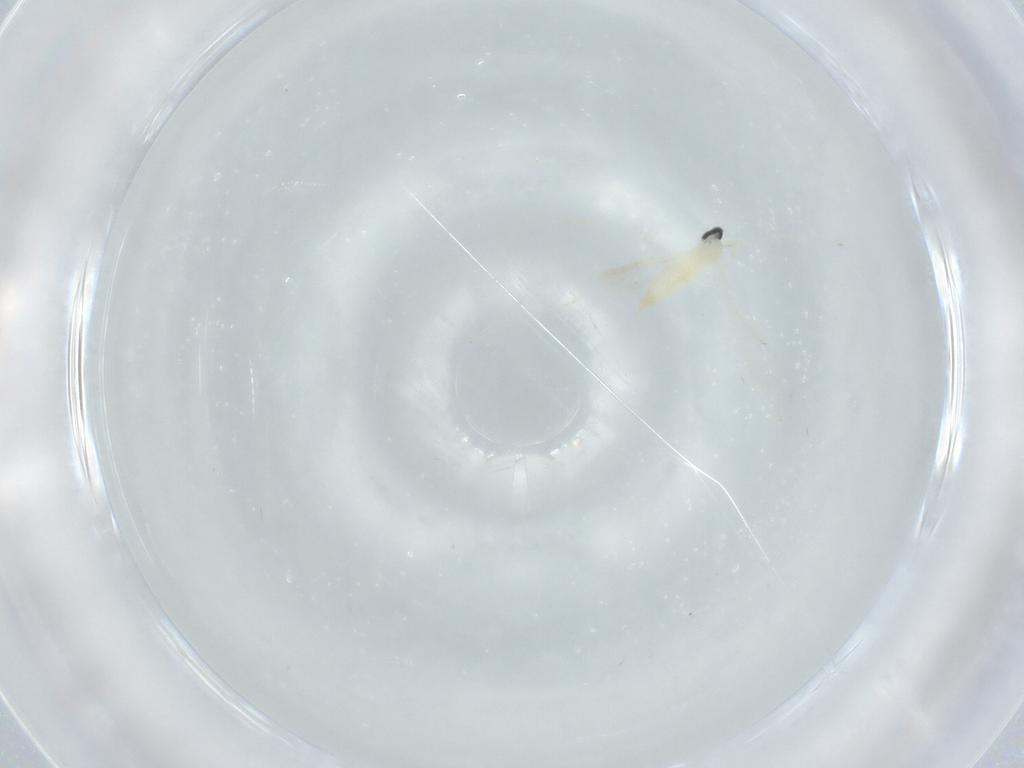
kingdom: Animalia
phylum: Arthropoda
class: Insecta
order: Diptera
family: Cecidomyiidae
